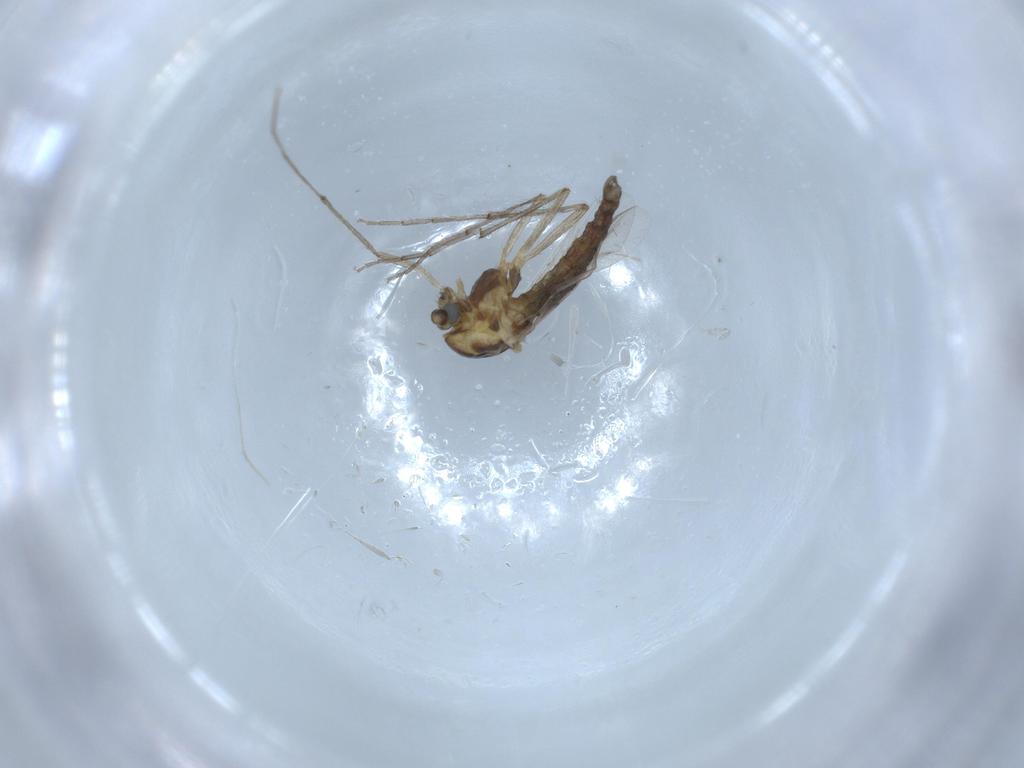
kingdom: Animalia
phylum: Arthropoda
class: Insecta
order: Diptera
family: Chironomidae
